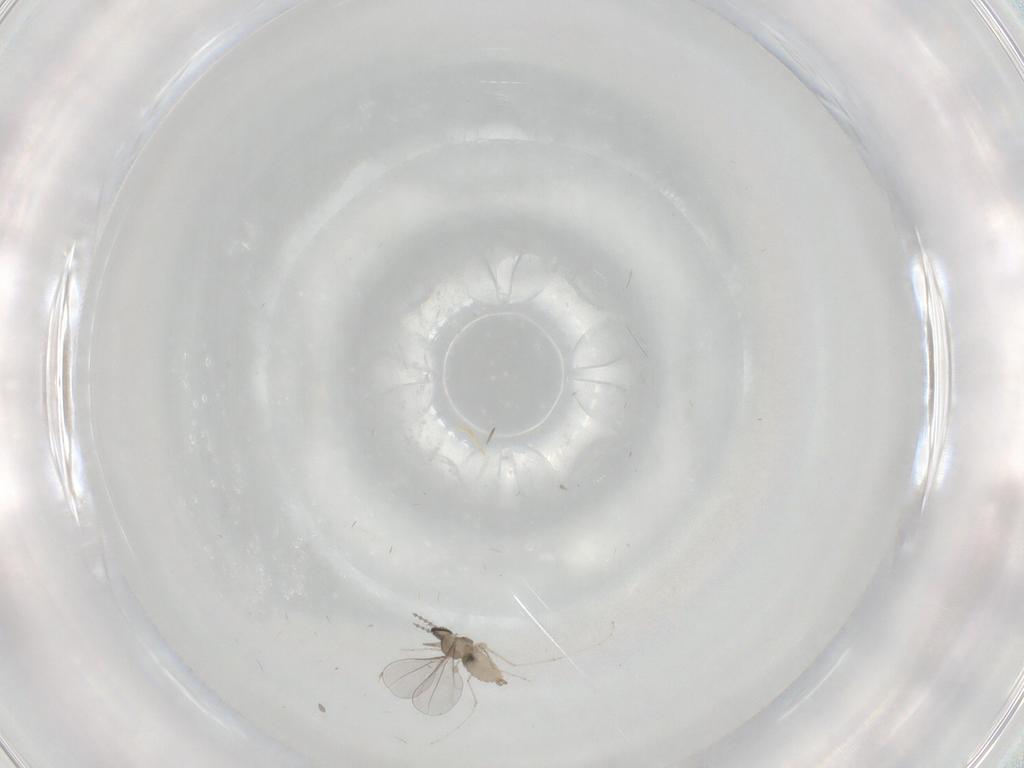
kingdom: Animalia
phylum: Arthropoda
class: Insecta
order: Diptera
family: Cecidomyiidae
